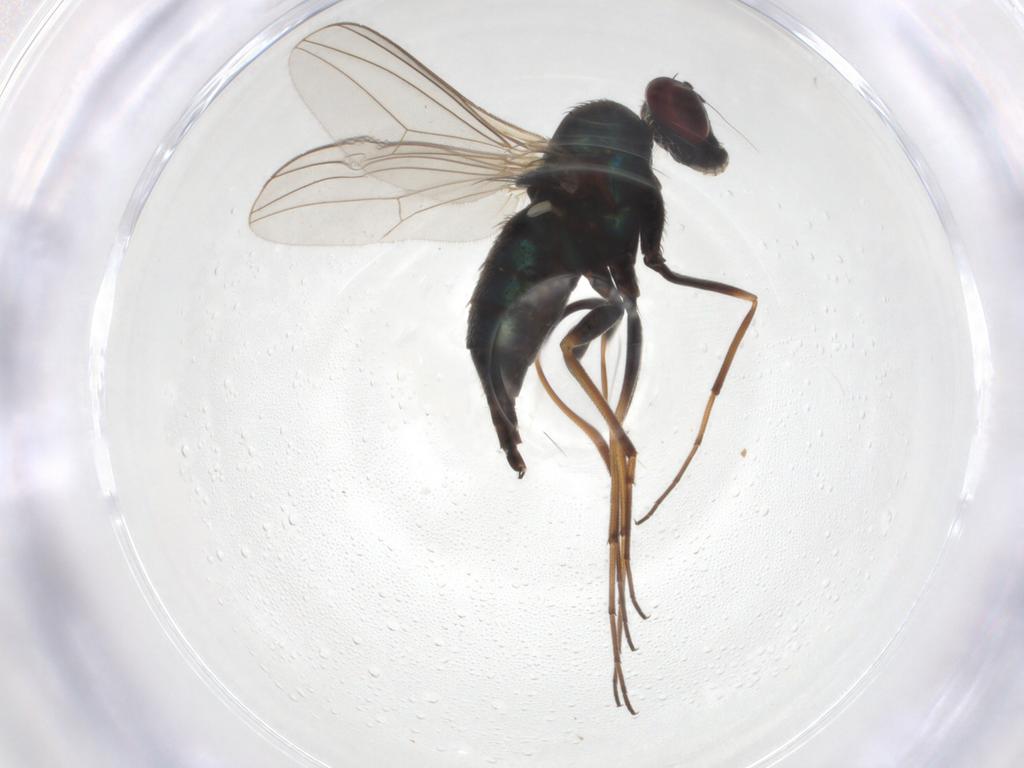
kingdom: Animalia
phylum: Arthropoda
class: Insecta
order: Diptera
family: Dolichopodidae
